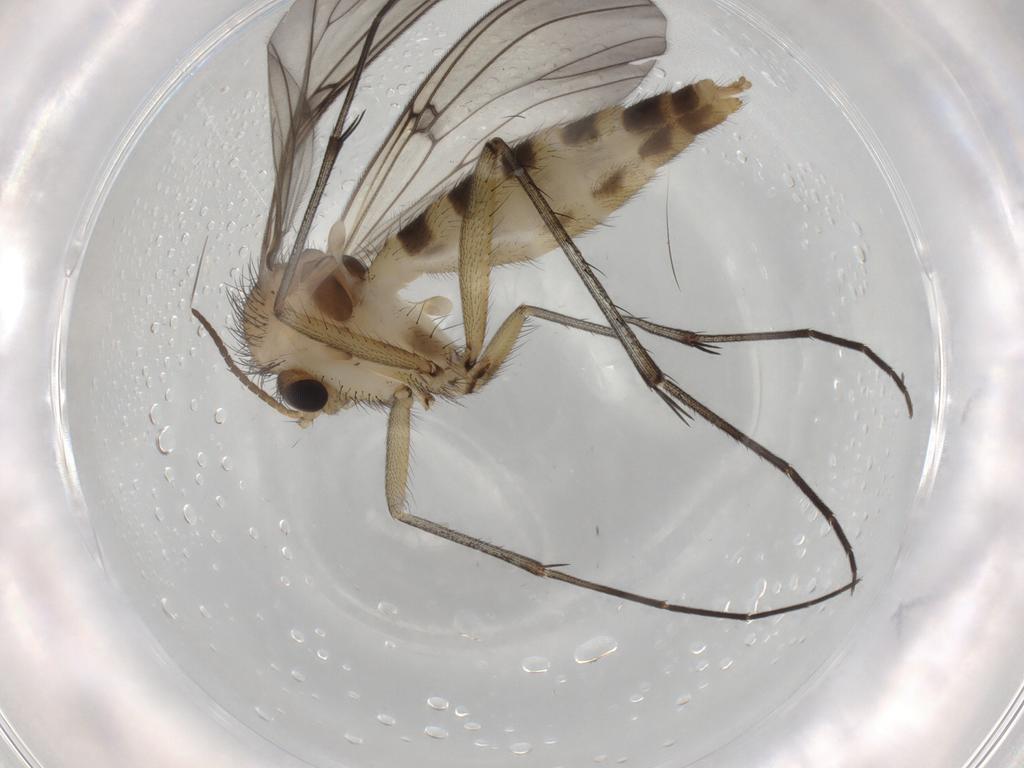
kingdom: Animalia
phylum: Arthropoda
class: Insecta
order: Diptera
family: Mycetophilidae
